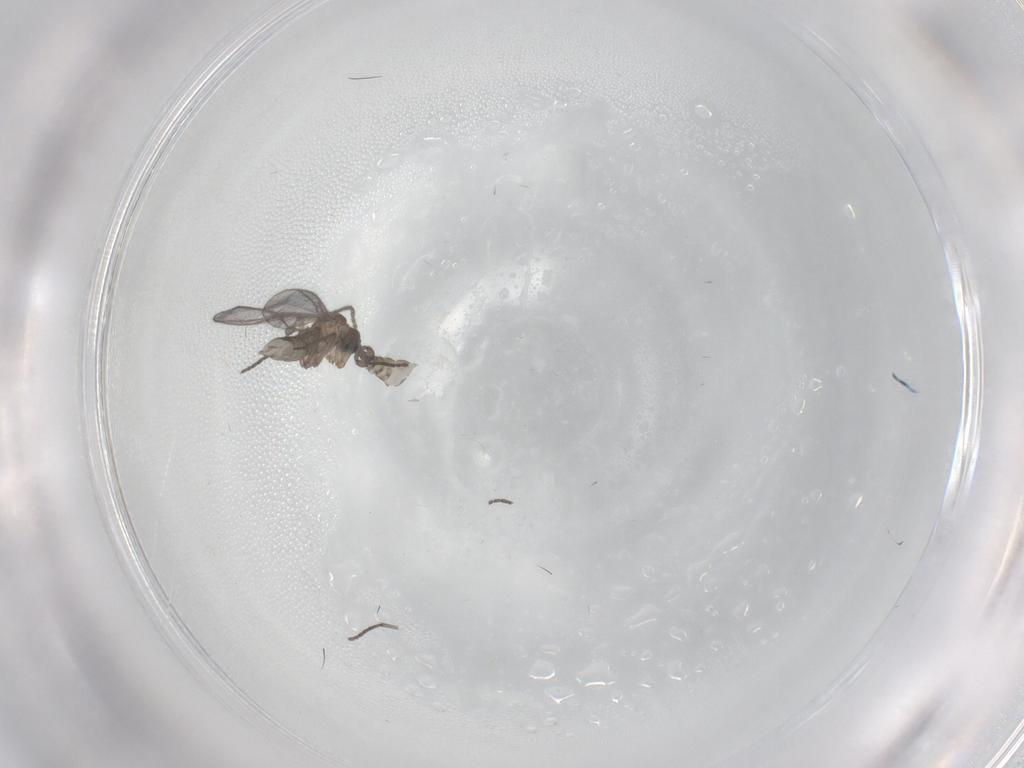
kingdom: Animalia
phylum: Arthropoda
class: Insecta
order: Diptera
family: Sciaridae
